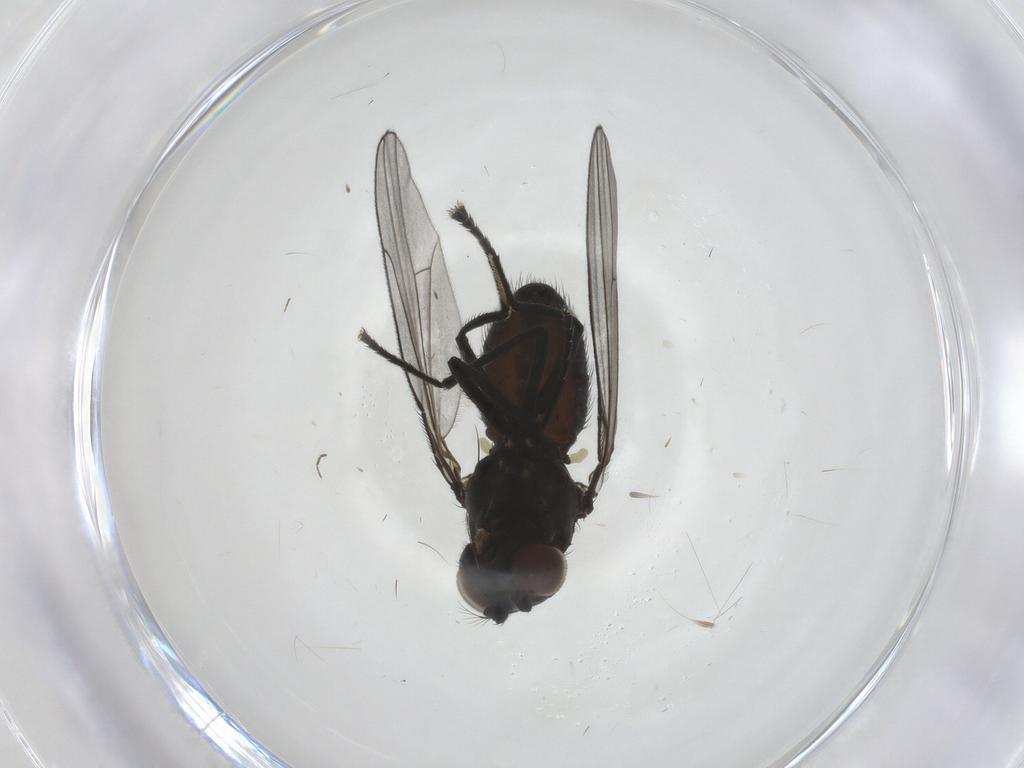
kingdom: Animalia
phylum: Arthropoda
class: Insecta
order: Diptera
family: Ephydridae
